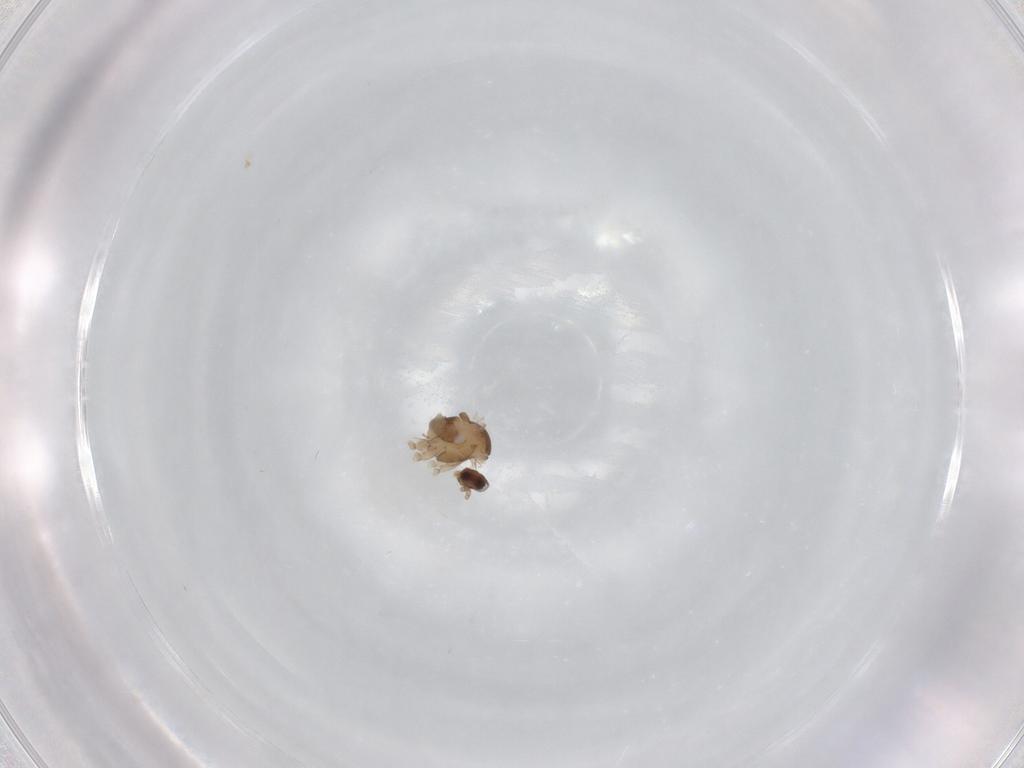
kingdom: Animalia
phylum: Arthropoda
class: Insecta
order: Diptera
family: Cecidomyiidae
